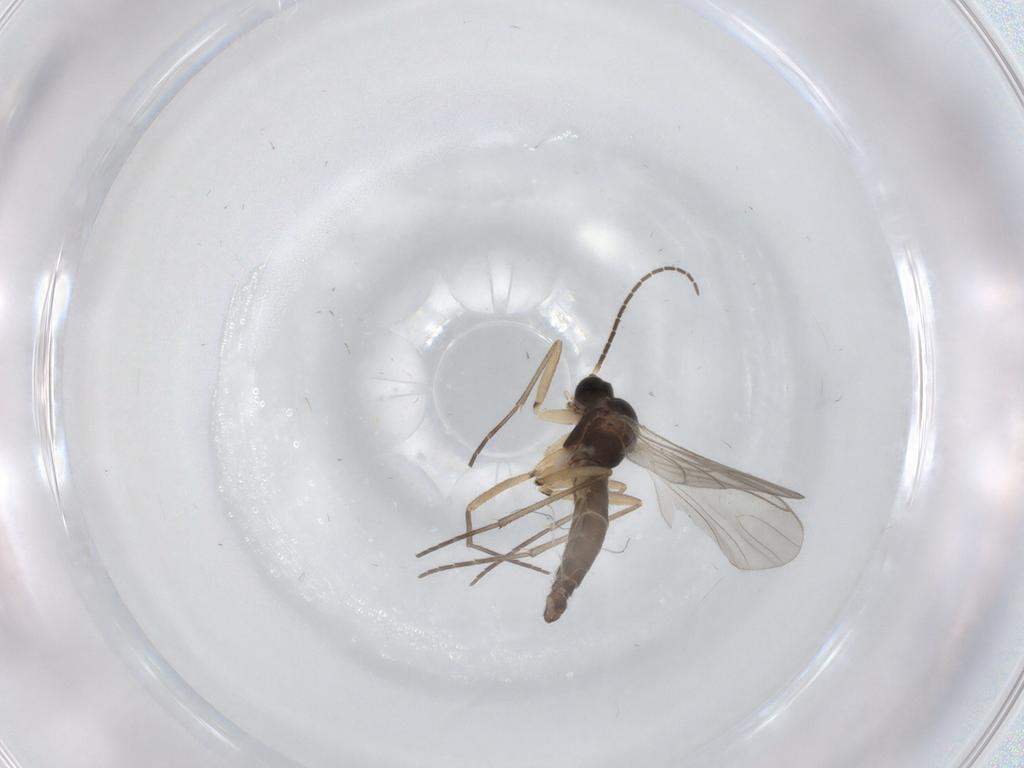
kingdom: Animalia
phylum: Arthropoda
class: Insecta
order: Diptera
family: Sciaridae
